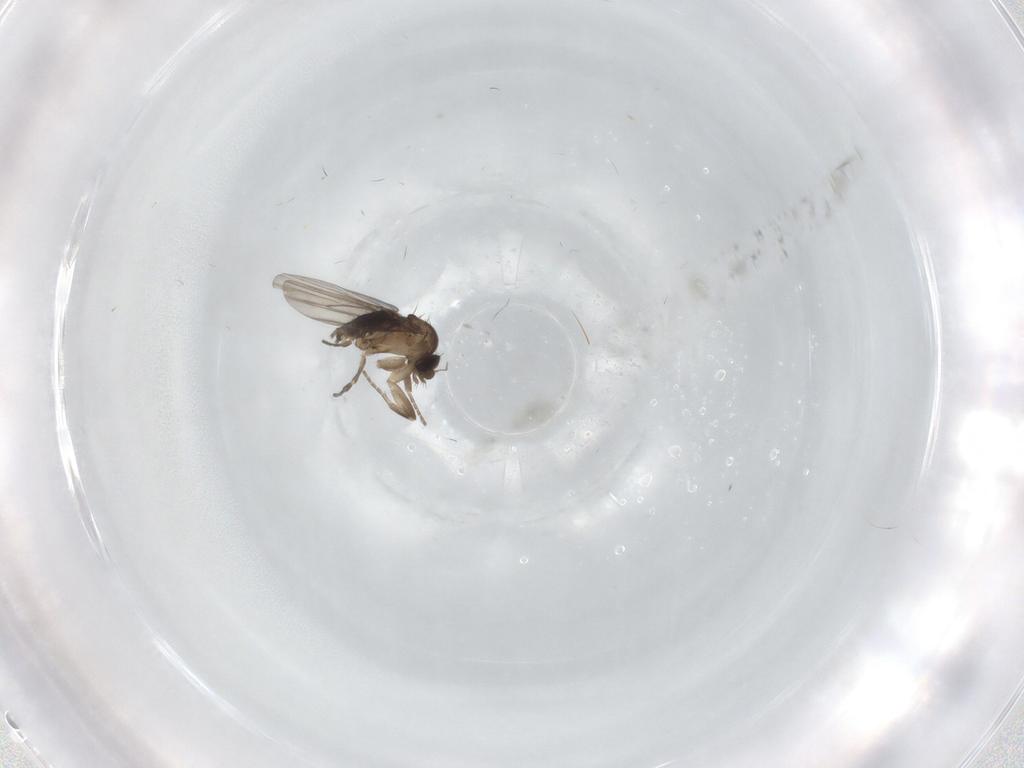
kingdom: Animalia
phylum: Arthropoda
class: Insecta
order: Diptera
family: Phoridae
